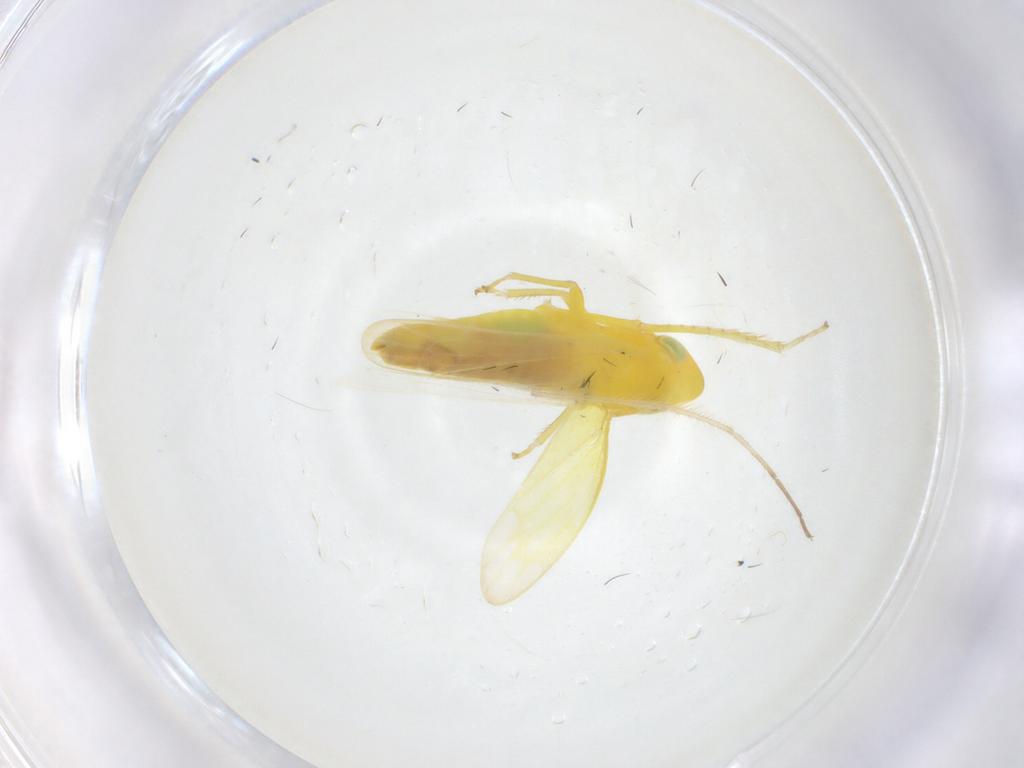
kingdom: Animalia
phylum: Arthropoda
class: Insecta
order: Hemiptera
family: Cicadellidae
